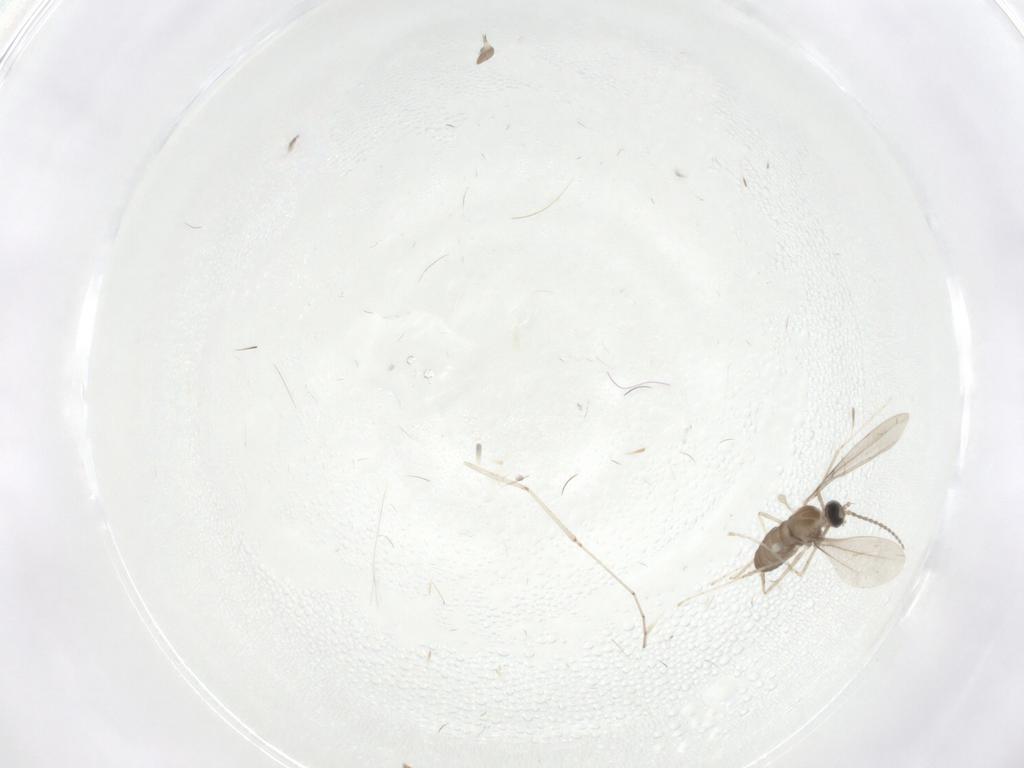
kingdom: Animalia
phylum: Arthropoda
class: Insecta
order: Diptera
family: Cecidomyiidae
